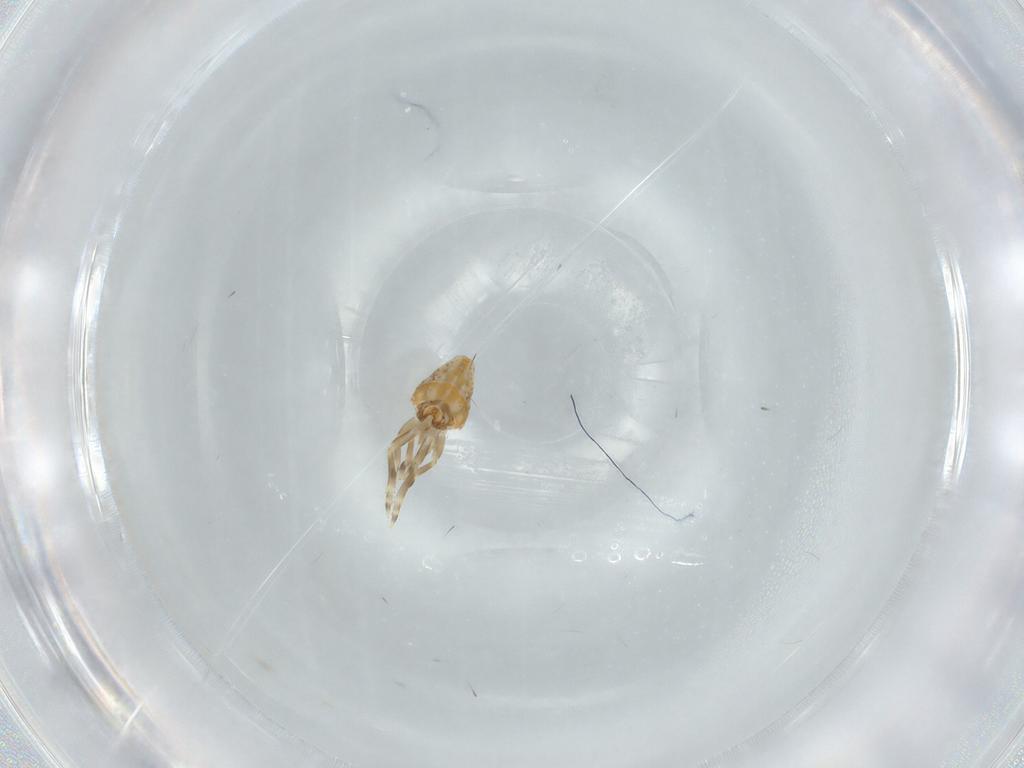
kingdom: Animalia
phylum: Arthropoda
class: Insecta
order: Hemiptera
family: Flatidae
